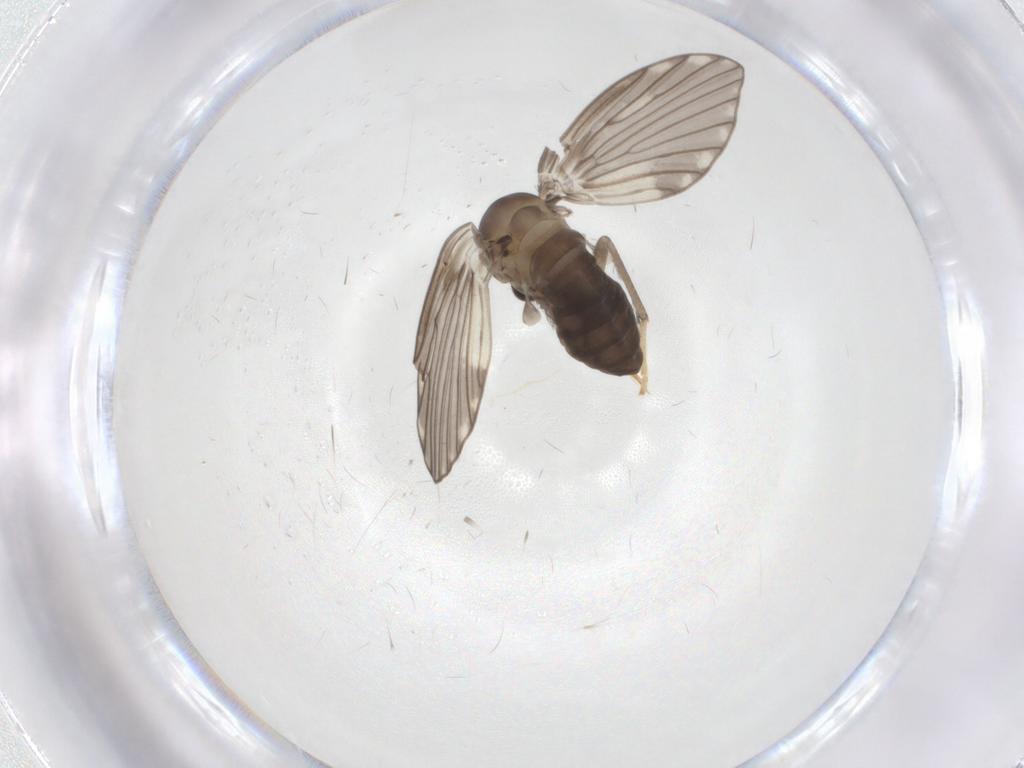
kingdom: Animalia
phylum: Arthropoda
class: Insecta
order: Diptera
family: Psychodidae
